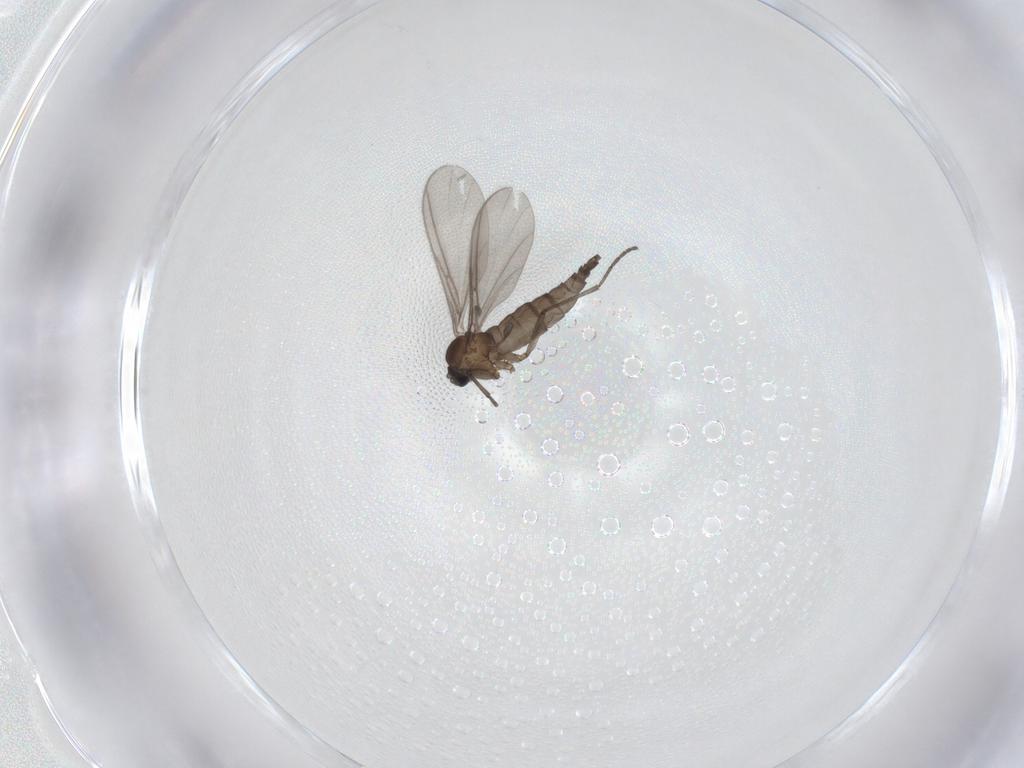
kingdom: Animalia
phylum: Arthropoda
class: Insecta
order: Diptera
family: Sciaridae
